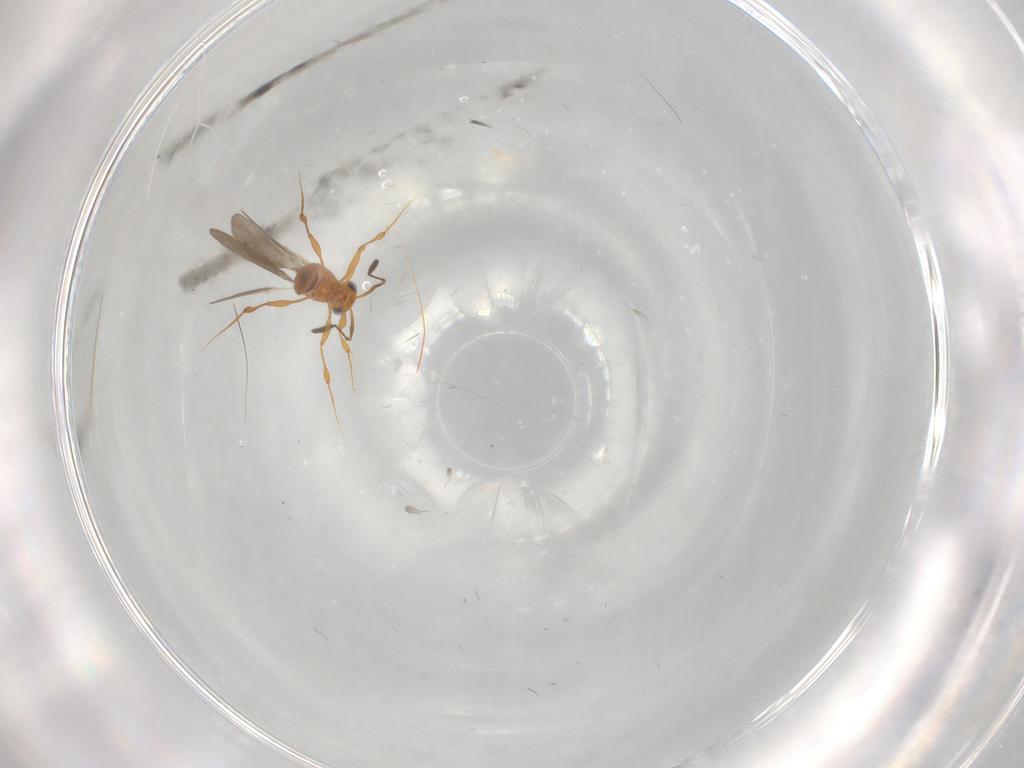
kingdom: Animalia
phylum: Arthropoda
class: Insecta
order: Hymenoptera
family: Platygastridae
